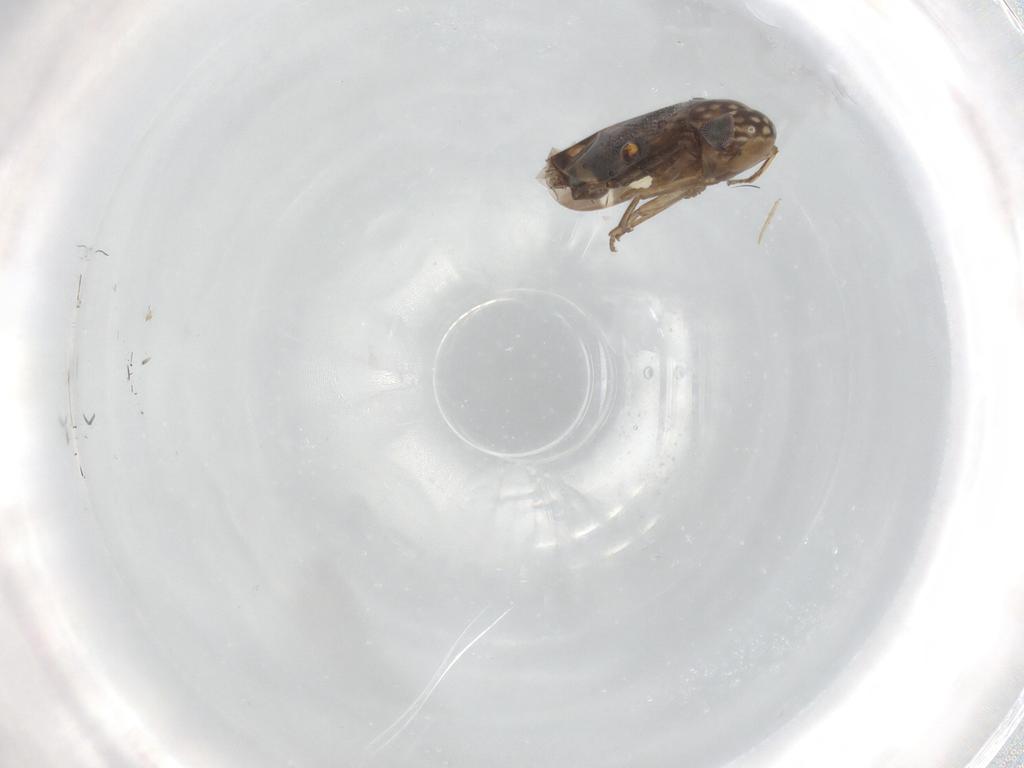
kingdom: Animalia
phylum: Arthropoda
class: Insecta
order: Hemiptera
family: Cicadellidae
